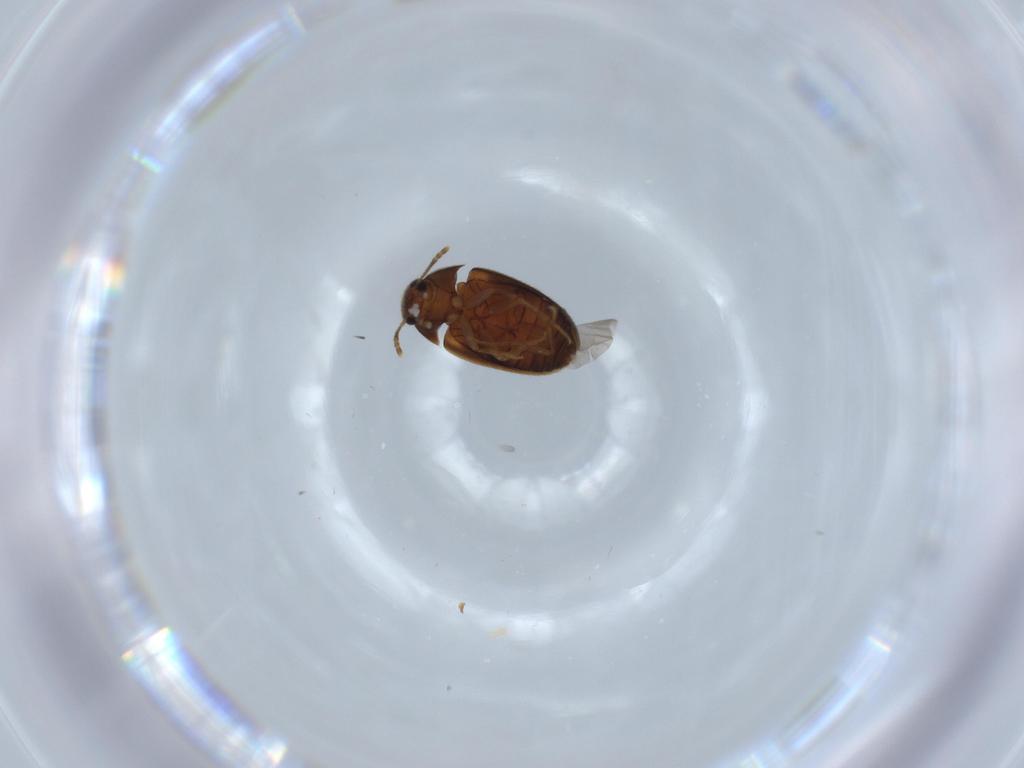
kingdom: Animalia
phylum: Arthropoda
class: Insecta
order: Coleoptera
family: Mycetophagidae
